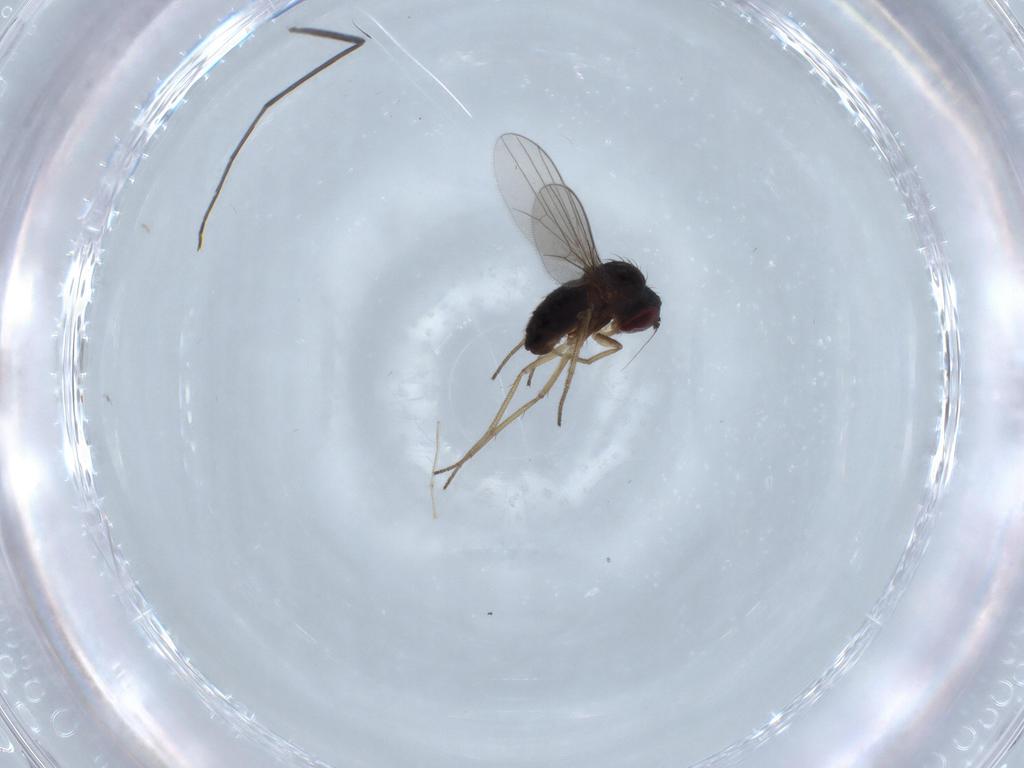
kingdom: Animalia
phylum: Arthropoda
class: Insecta
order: Diptera
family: Dolichopodidae
